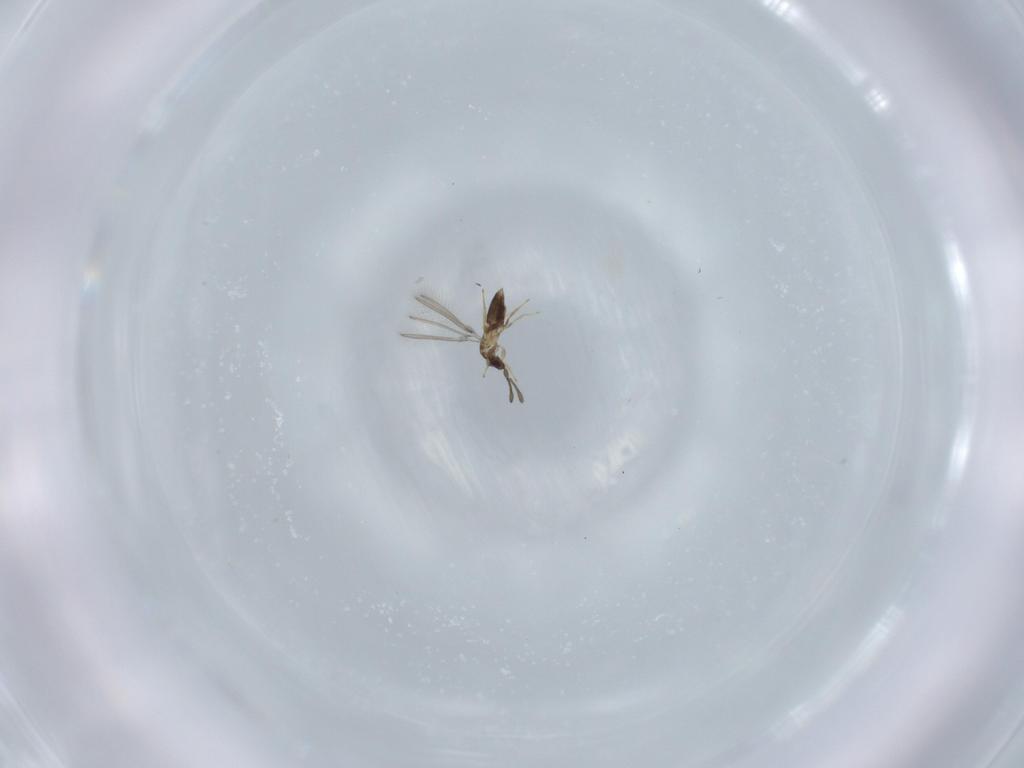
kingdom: Animalia
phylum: Arthropoda
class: Insecta
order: Hymenoptera
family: Mymaridae
